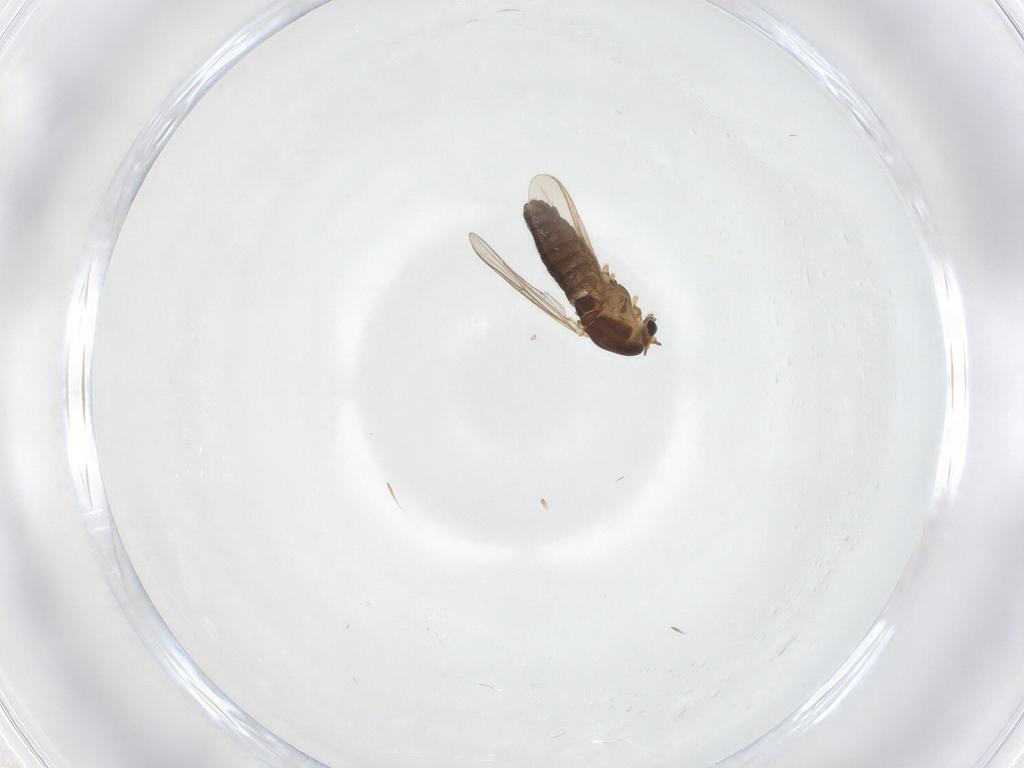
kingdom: Animalia
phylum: Arthropoda
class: Insecta
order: Diptera
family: Chironomidae
